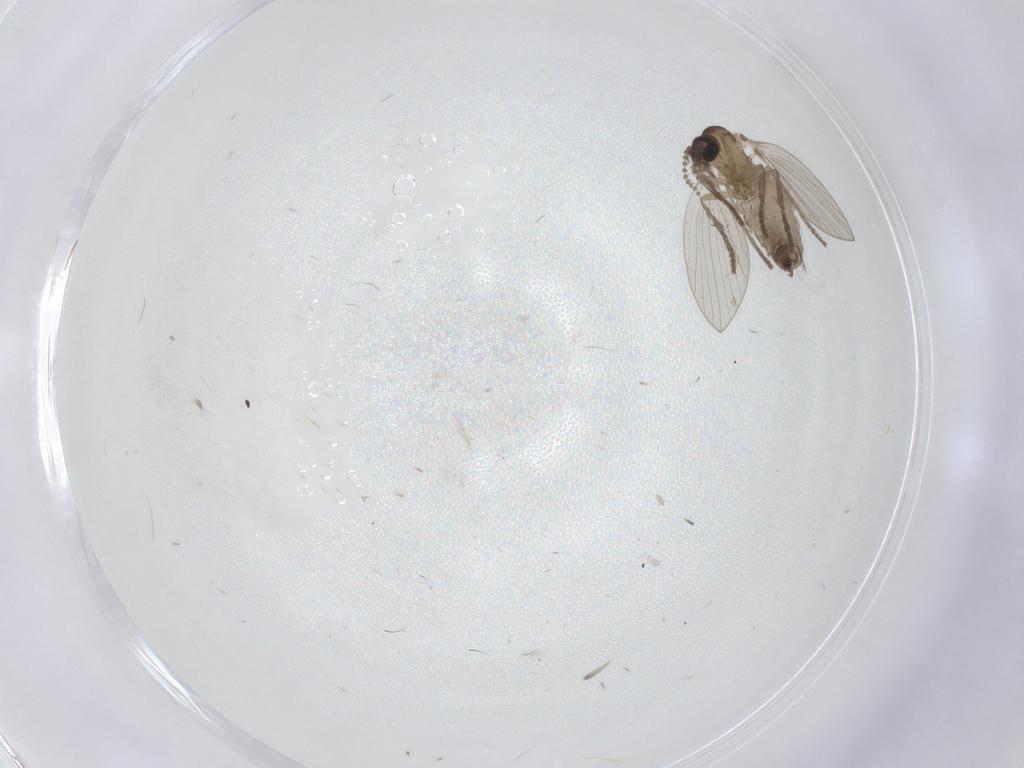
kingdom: Animalia
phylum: Arthropoda
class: Insecta
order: Diptera
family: Psychodidae
